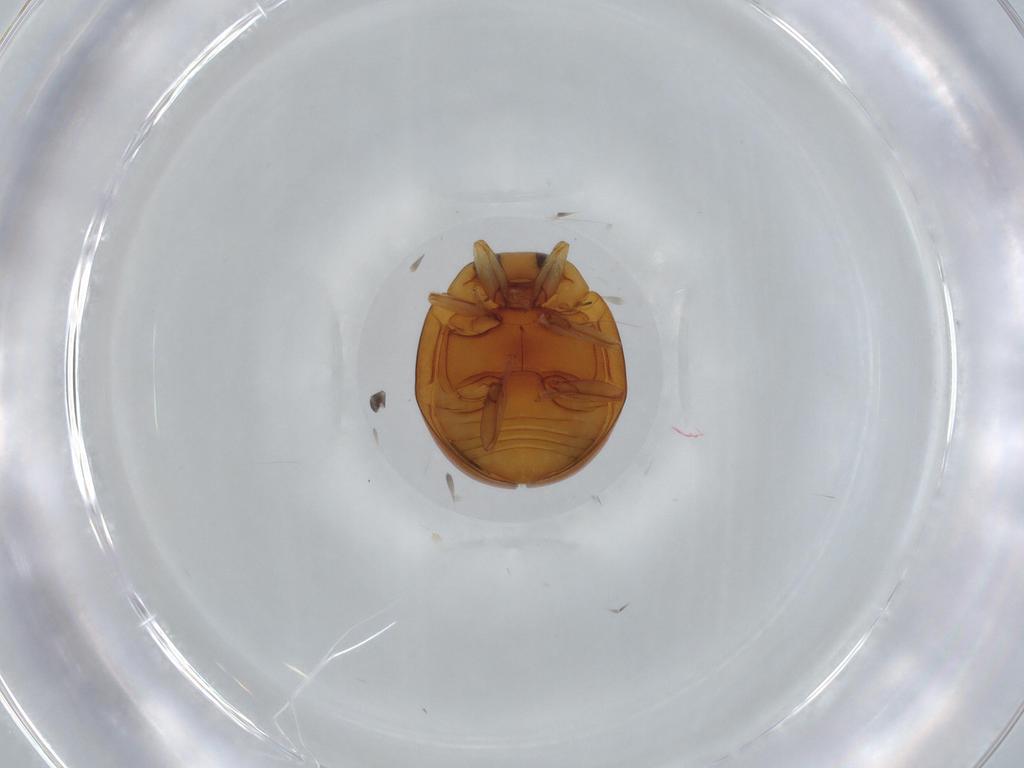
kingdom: Animalia
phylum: Arthropoda
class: Insecta
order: Coleoptera
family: Coccinellidae
